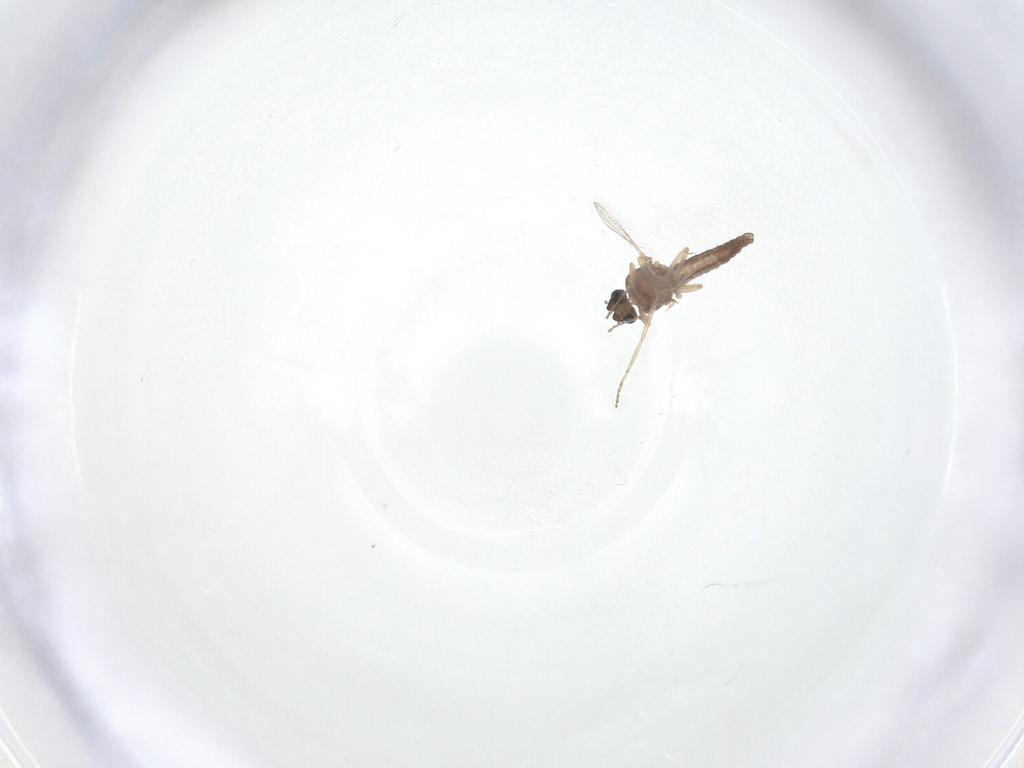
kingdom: Animalia
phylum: Arthropoda
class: Insecta
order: Diptera
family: Ceratopogonidae
